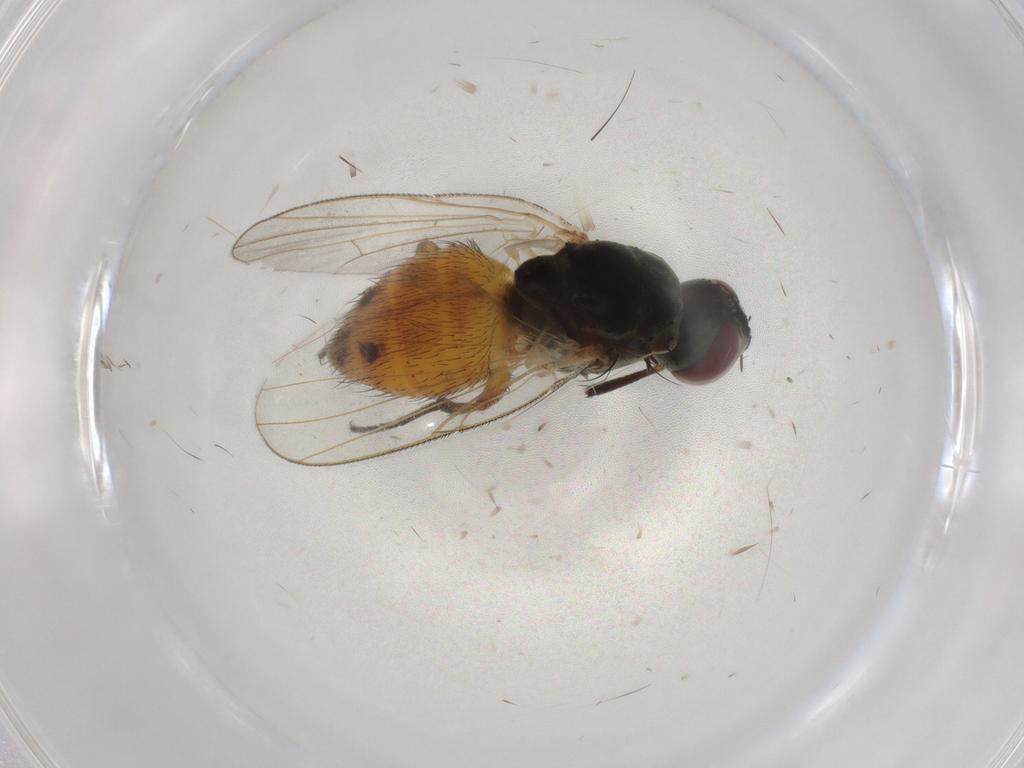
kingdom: Animalia
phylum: Arthropoda
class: Insecta
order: Diptera
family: Muscidae
